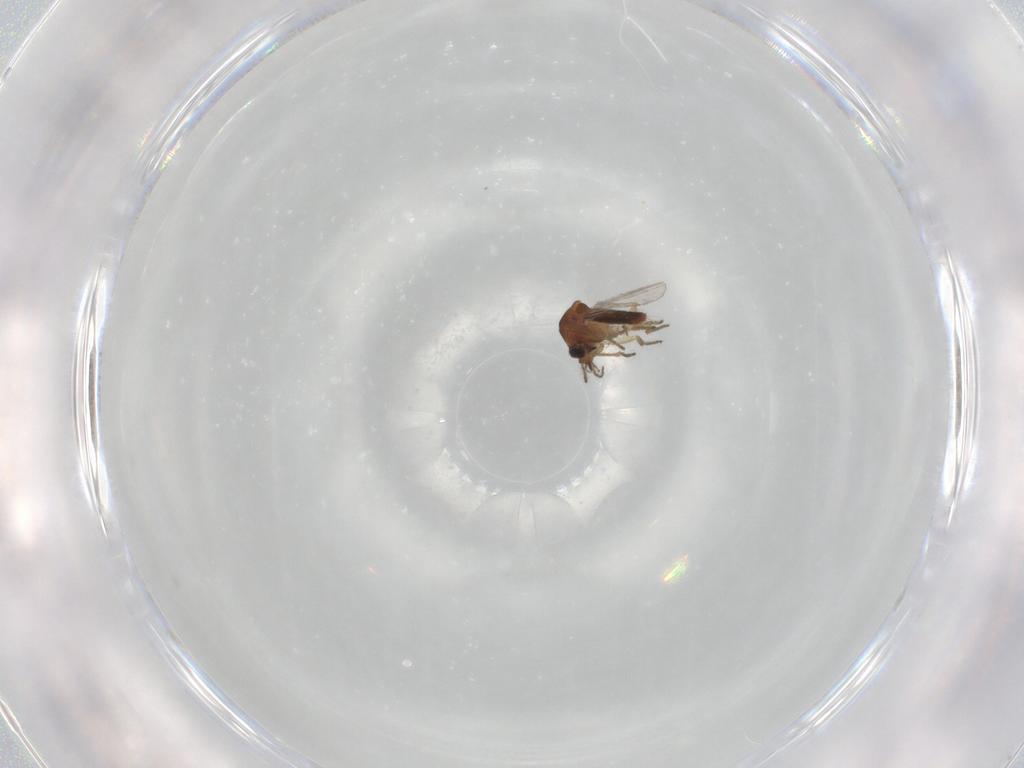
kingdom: Animalia
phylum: Arthropoda
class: Insecta
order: Diptera
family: Ceratopogonidae
